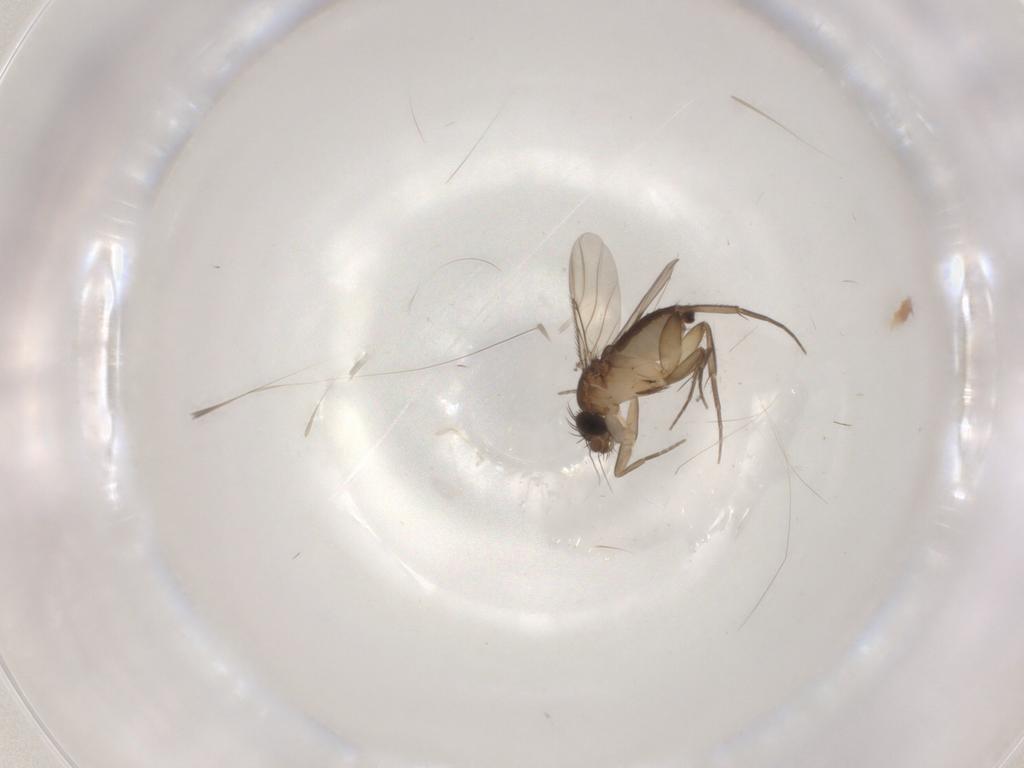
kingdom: Animalia
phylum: Arthropoda
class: Insecta
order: Diptera
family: Phoridae
